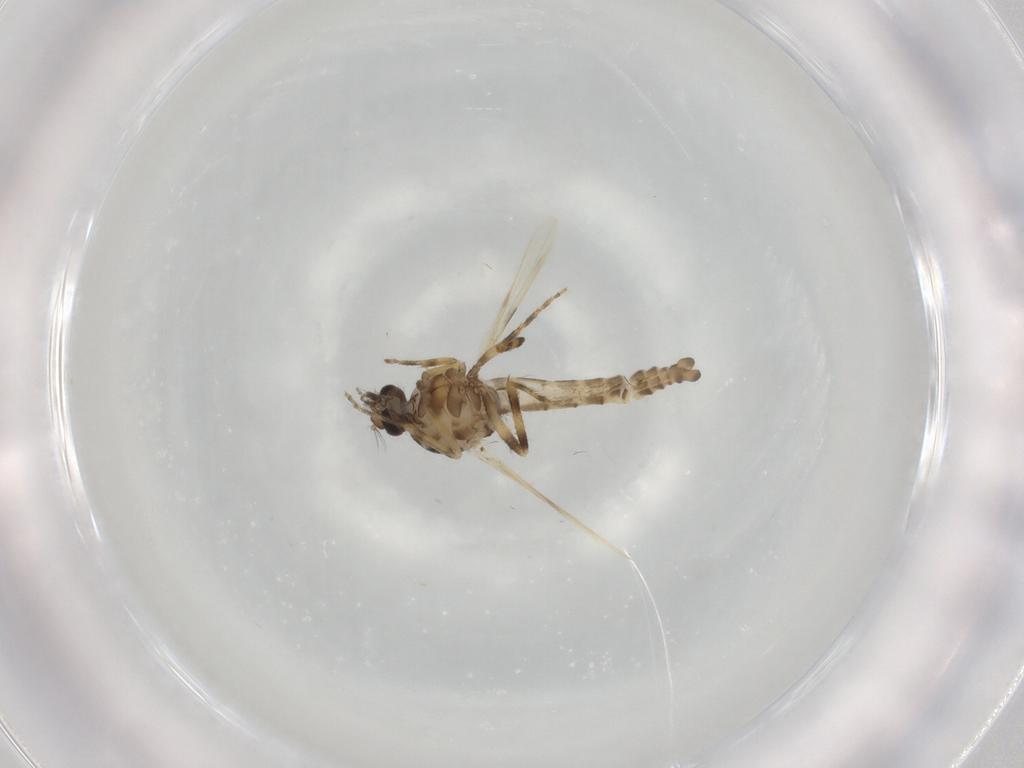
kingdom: Animalia
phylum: Arthropoda
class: Insecta
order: Diptera
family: Ceratopogonidae
